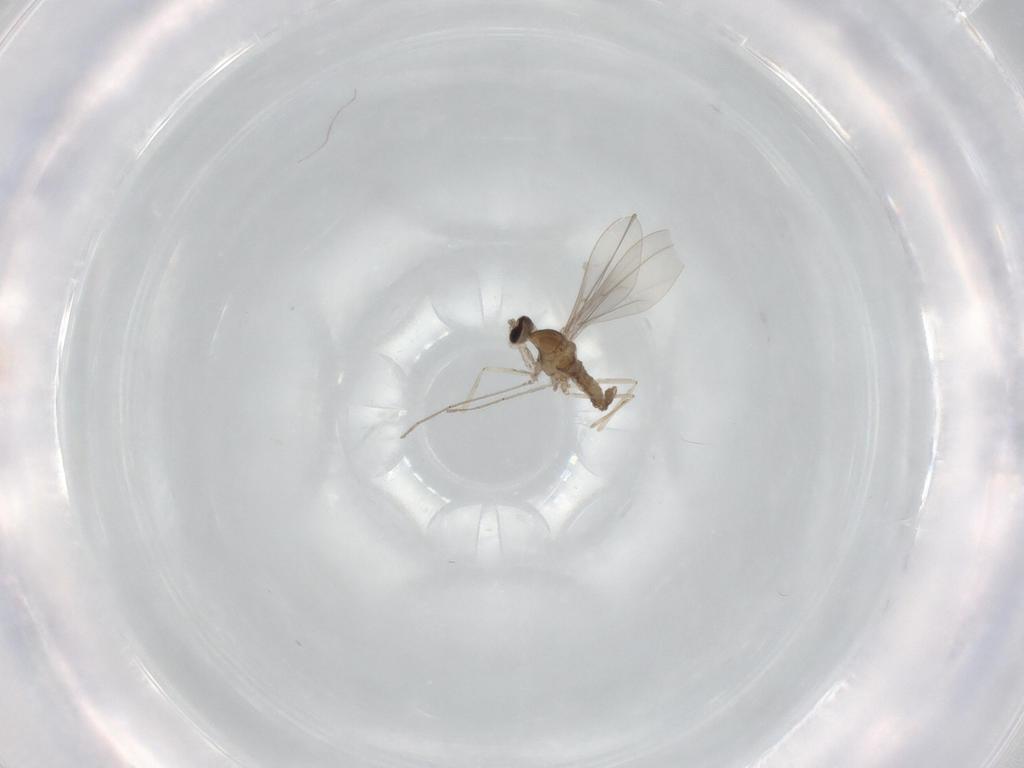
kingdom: Animalia
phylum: Arthropoda
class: Insecta
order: Diptera
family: Cecidomyiidae
